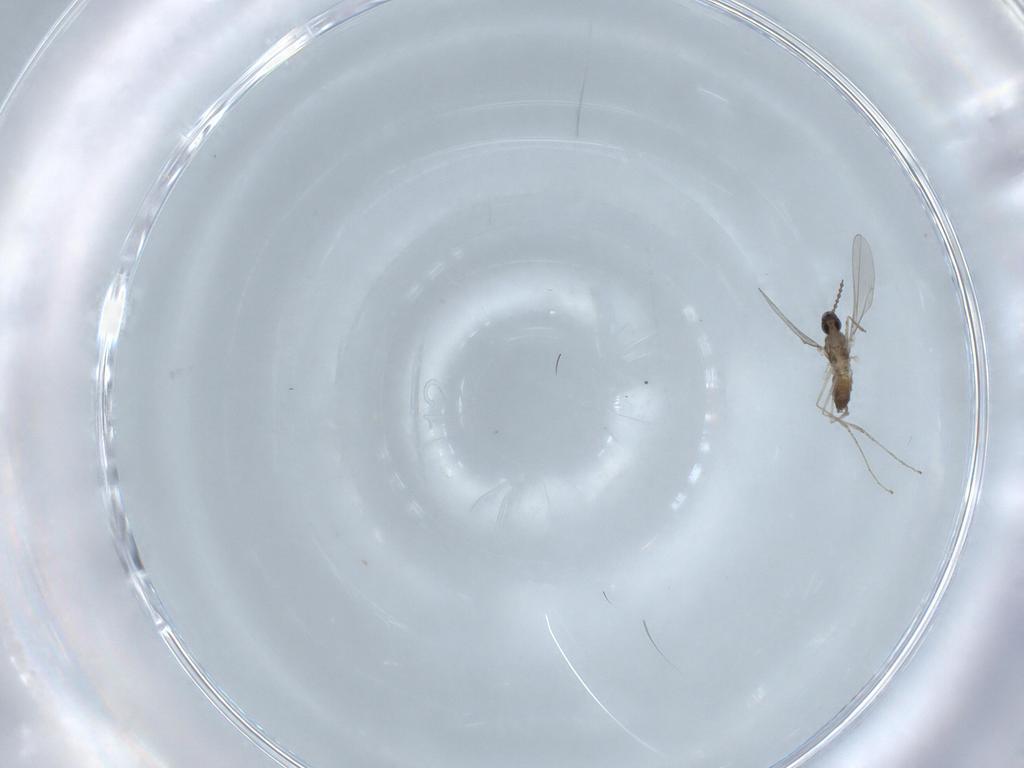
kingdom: Animalia
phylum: Arthropoda
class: Insecta
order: Diptera
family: Cecidomyiidae
